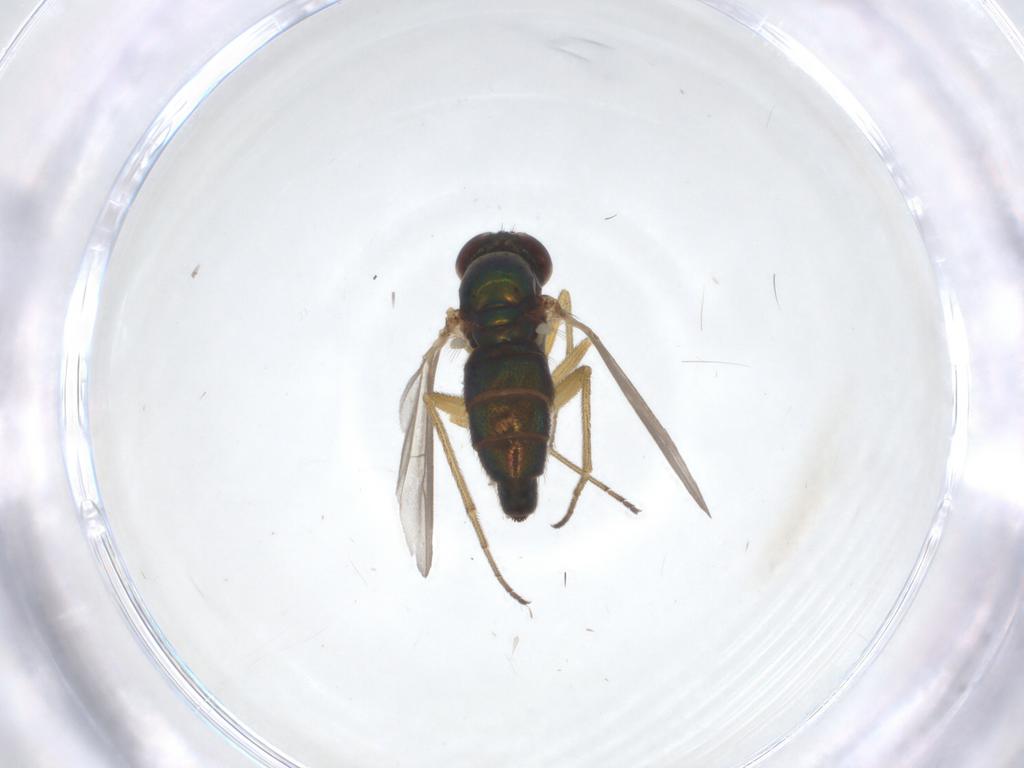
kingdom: Animalia
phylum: Arthropoda
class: Insecta
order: Diptera
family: Dolichopodidae
